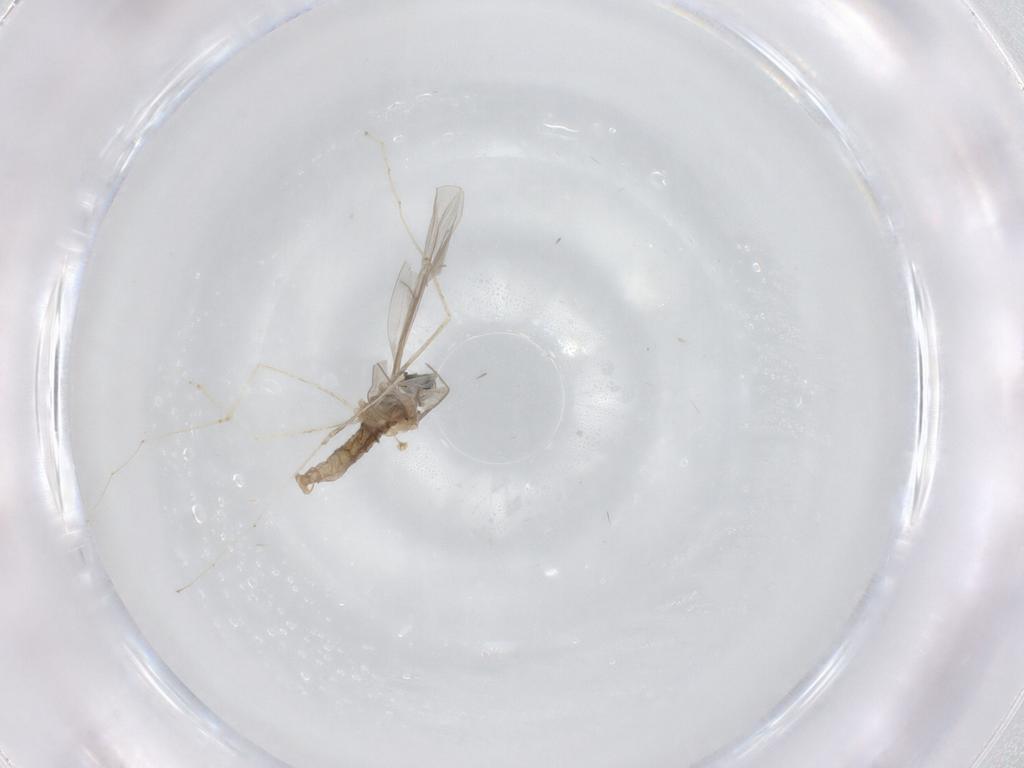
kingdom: Animalia
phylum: Arthropoda
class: Insecta
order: Diptera
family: Cecidomyiidae
